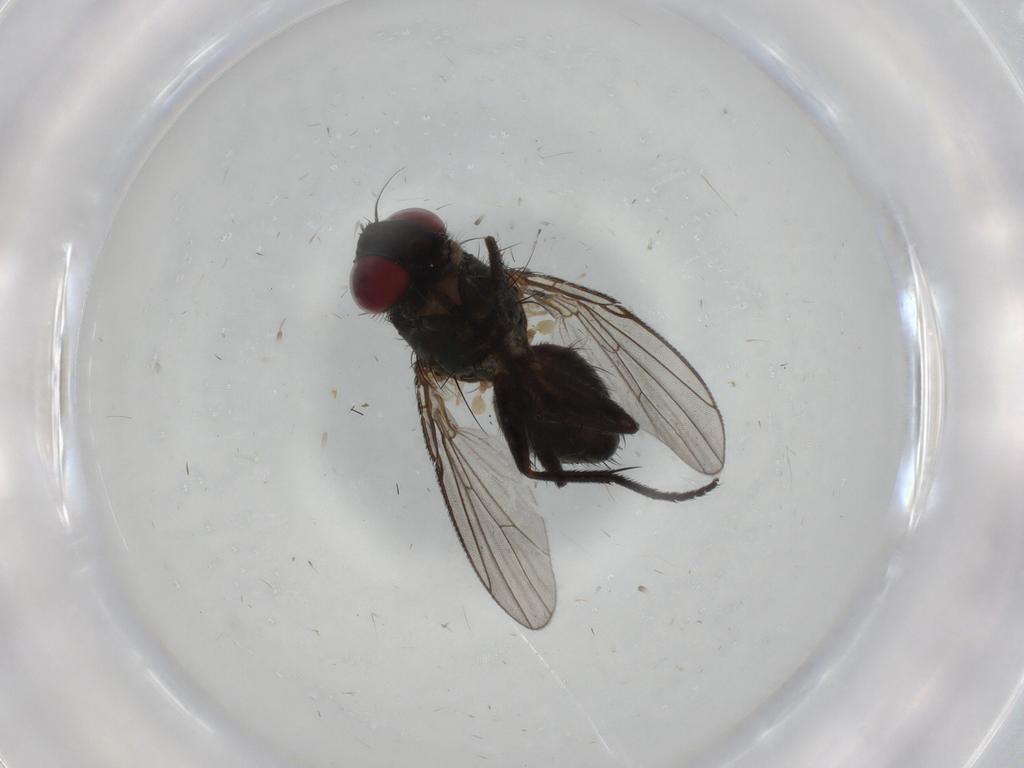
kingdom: Animalia
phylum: Arthropoda
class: Insecta
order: Diptera
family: Muscidae
